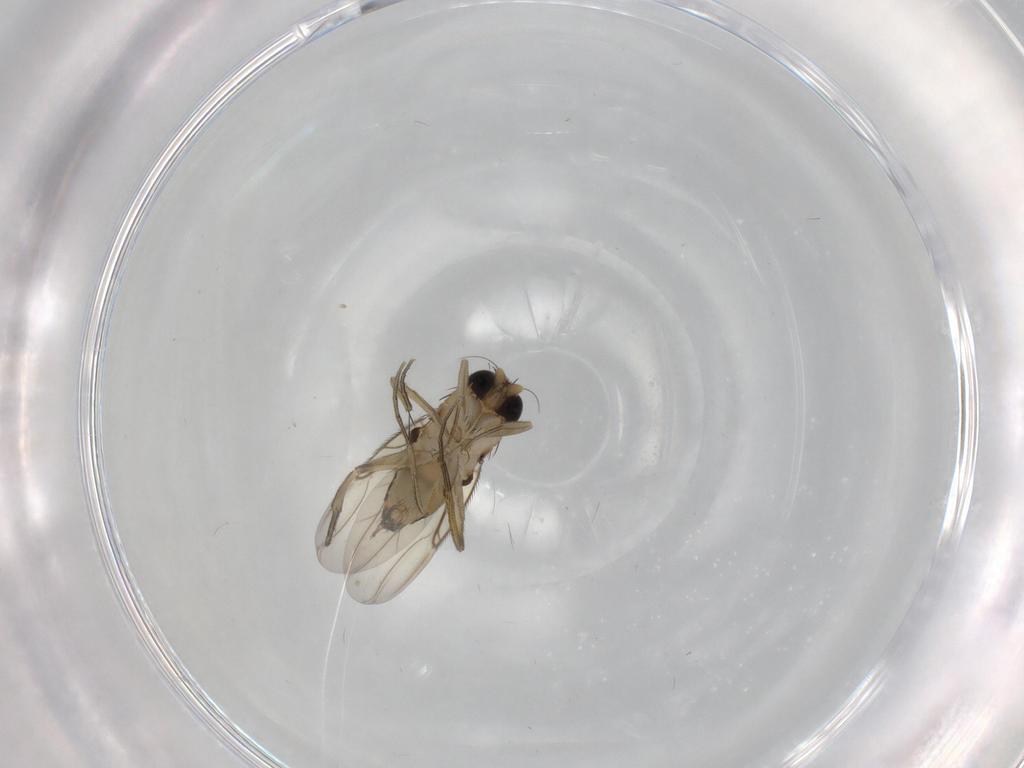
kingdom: Animalia
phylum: Arthropoda
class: Insecta
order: Diptera
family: Phoridae
